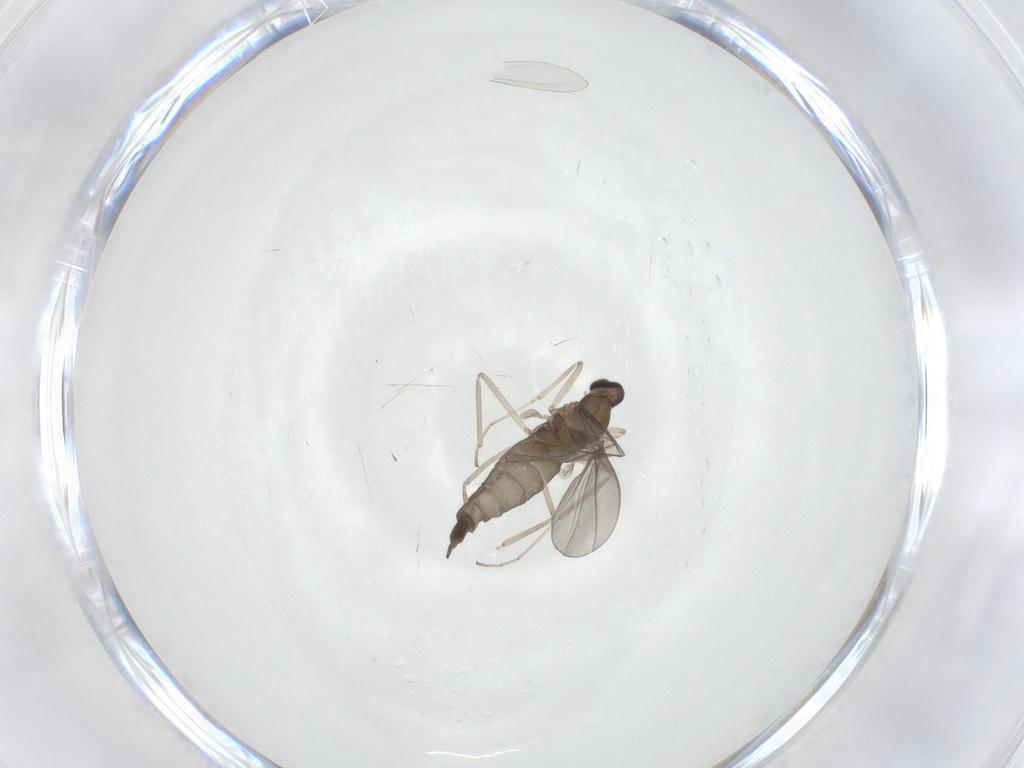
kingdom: Animalia
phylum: Arthropoda
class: Insecta
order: Diptera
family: Cecidomyiidae
